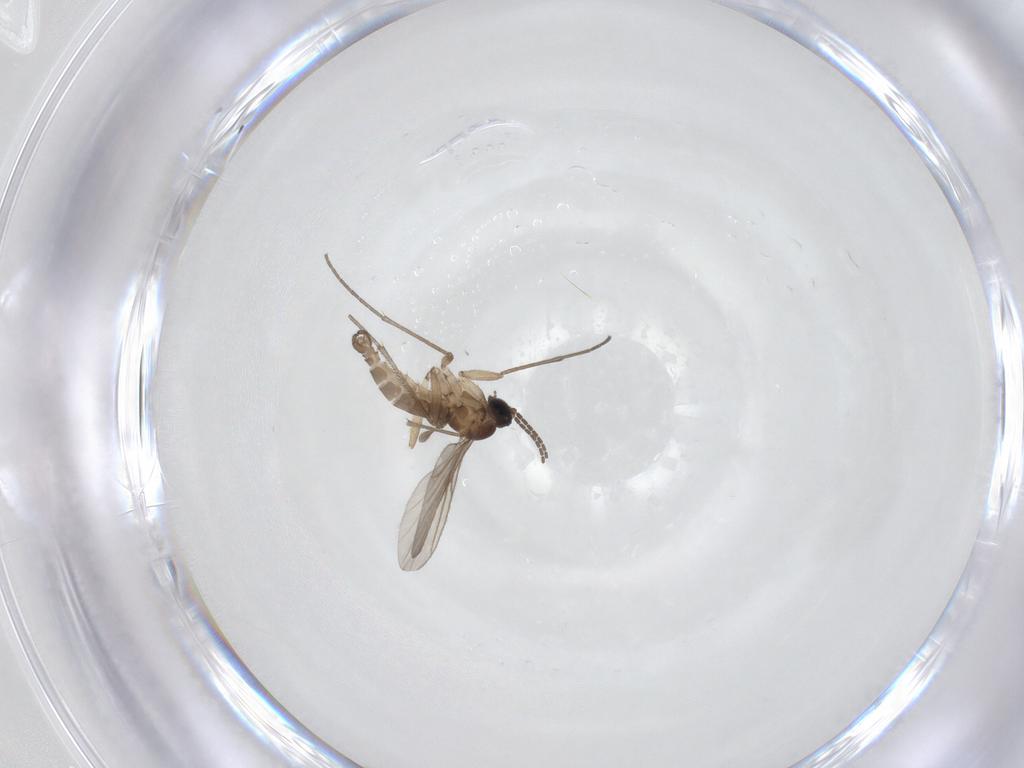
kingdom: Animalia
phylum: Arthropoda
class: Insecta
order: Diptera
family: Sciaridae
